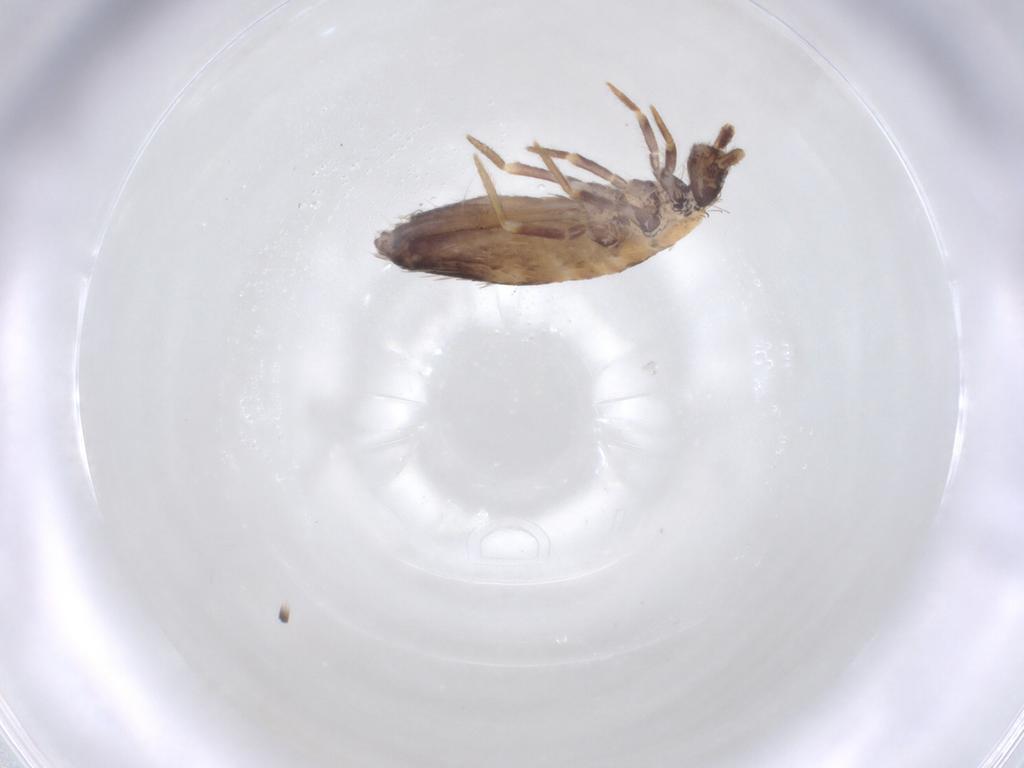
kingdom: Animalia
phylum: Arthropoda
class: Collembola
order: Entomobryomorpha
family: Entomobryidae
